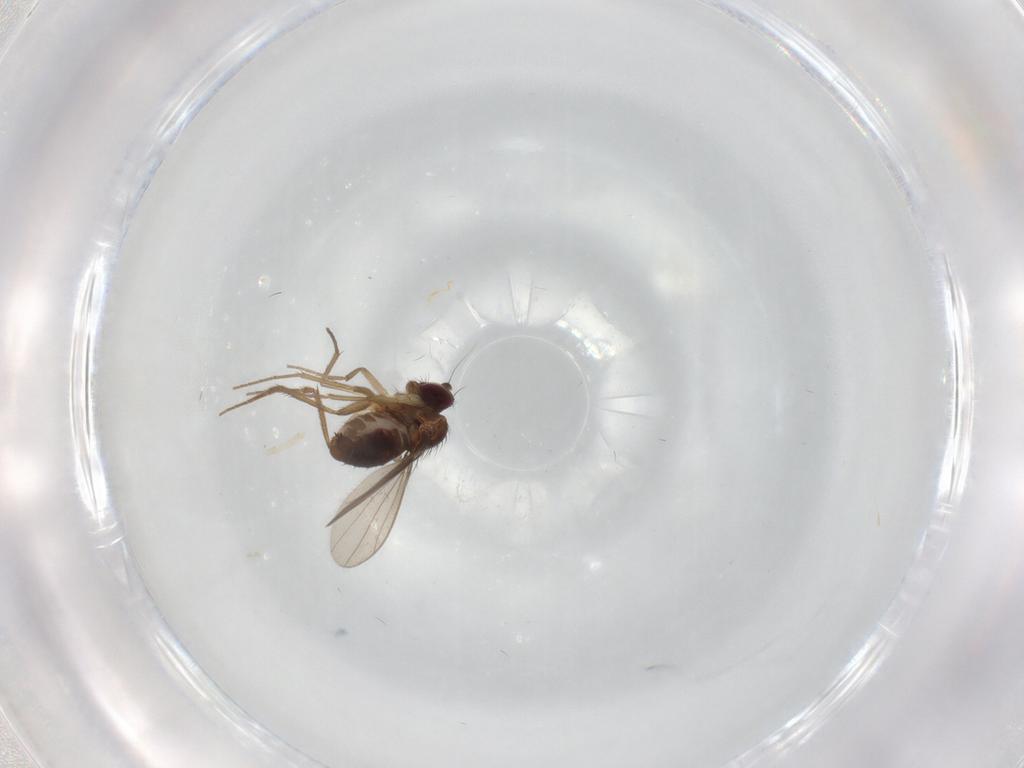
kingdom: Animalia
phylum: Arthropoda
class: Insecta
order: Diptera
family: Dolichopodidae
